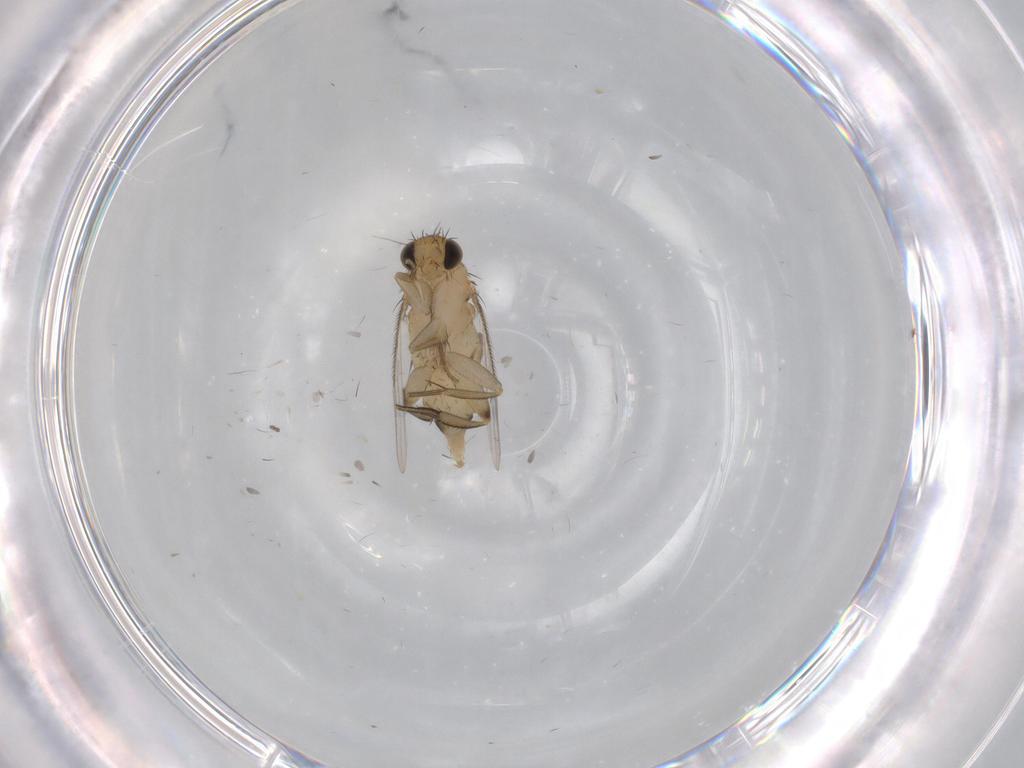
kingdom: Animalia
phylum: Arthropoda
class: Insecta
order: Diptera
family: Cecidomyiidae
